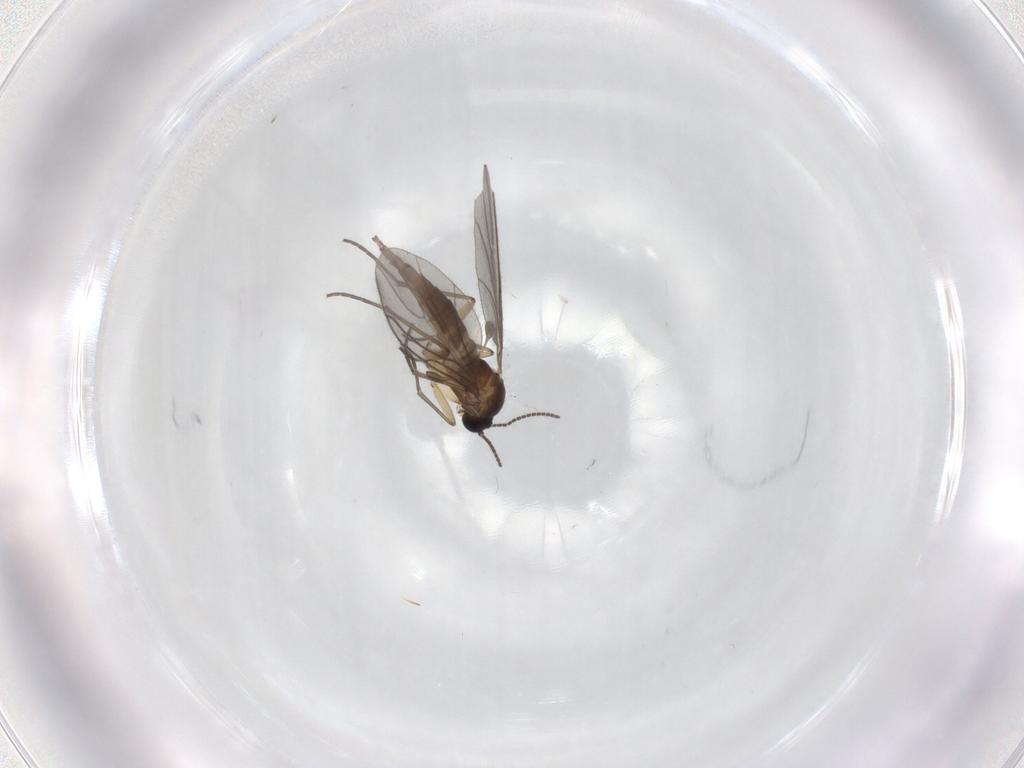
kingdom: Animalia
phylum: Arthropoda
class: Insecta
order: Diptera
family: Sciaridae
